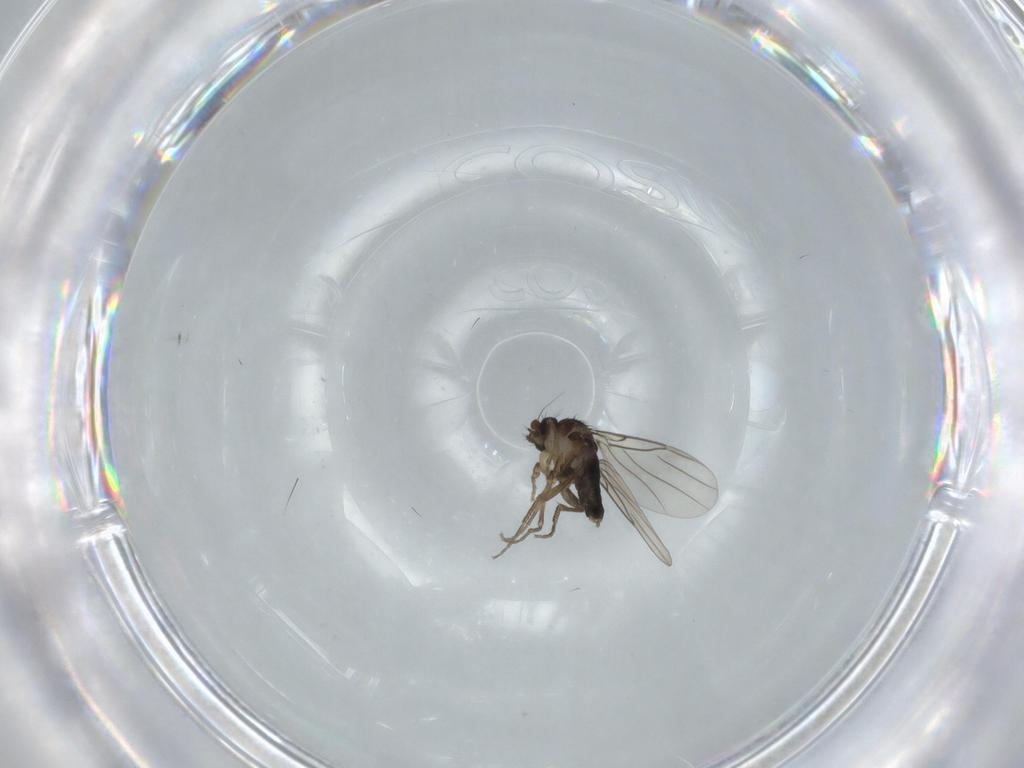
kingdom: Animalia
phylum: Arthropoda
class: Insecta
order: Diptera
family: Phoridae
